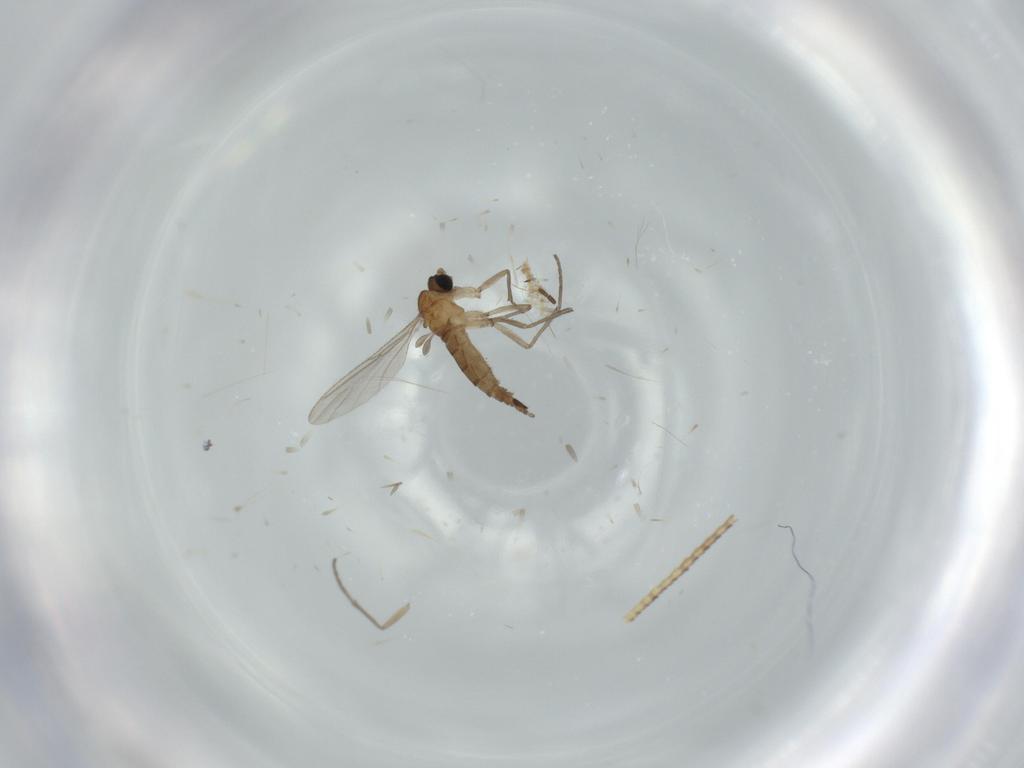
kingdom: Animalia
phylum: Arthropoda
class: Insecta
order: Diptera
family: Sciaridae
